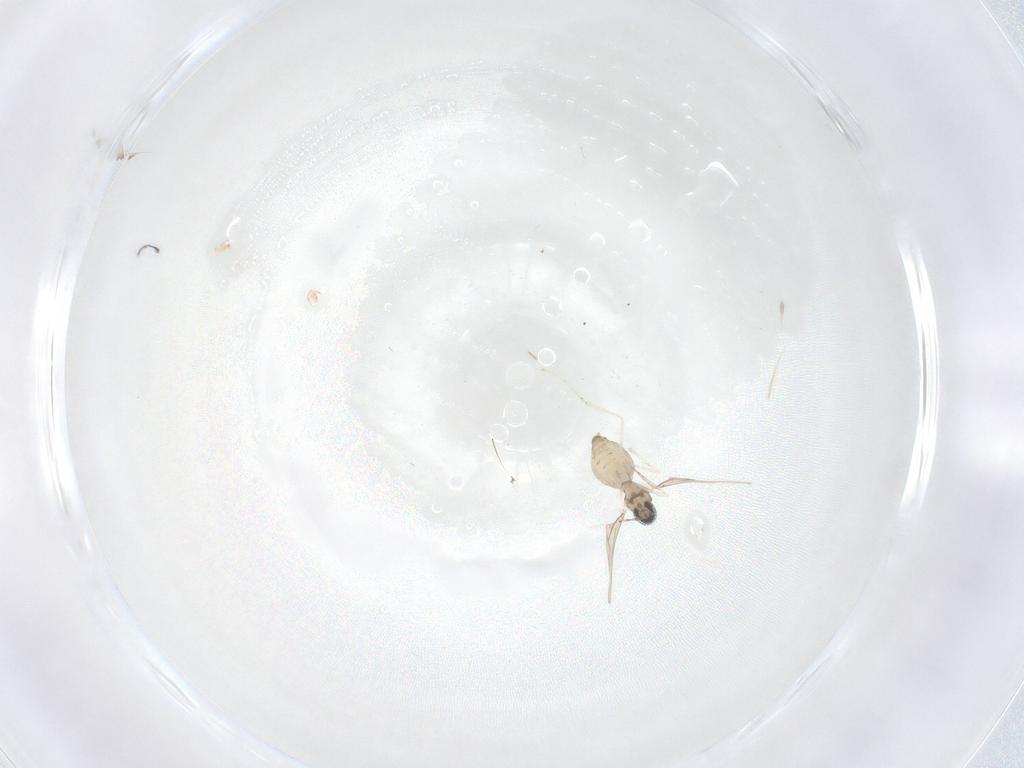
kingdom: Animalia
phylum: Arthropoda
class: Insecta
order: Diptera
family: Cecidomyiidae
